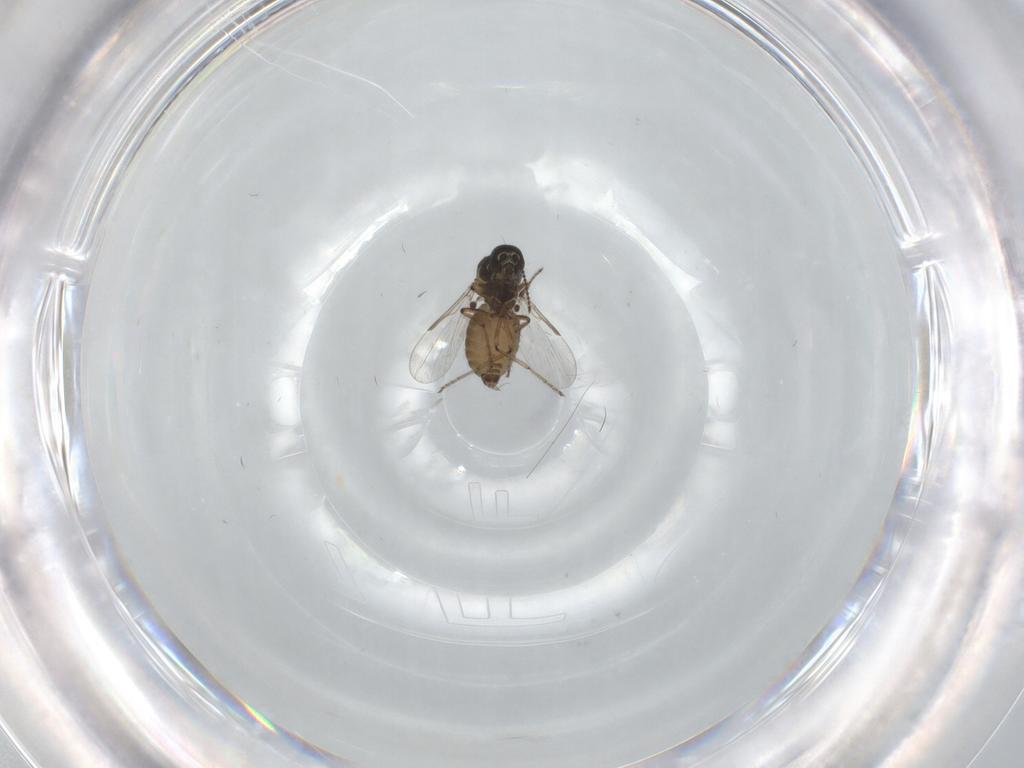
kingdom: Animalia
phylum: Arthropoda
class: Insecta
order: Diptera
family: Ceratopogonidae
